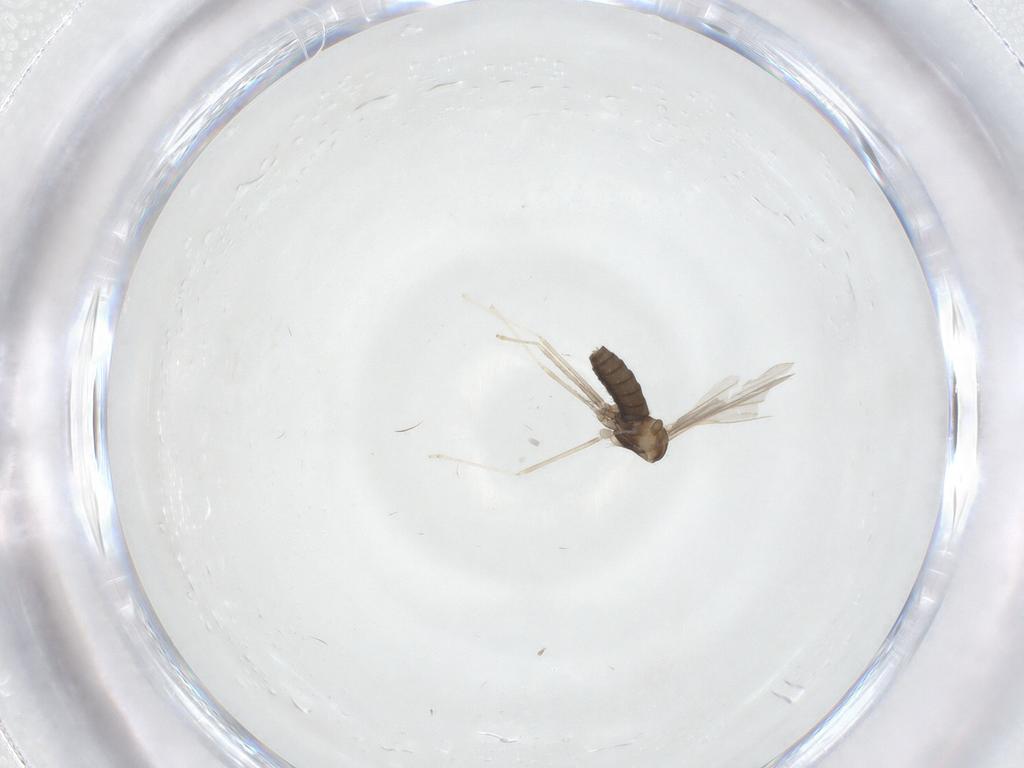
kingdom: Animalia
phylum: Arthropoda
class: Insecta
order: Diptera
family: Cecidomyiidae
